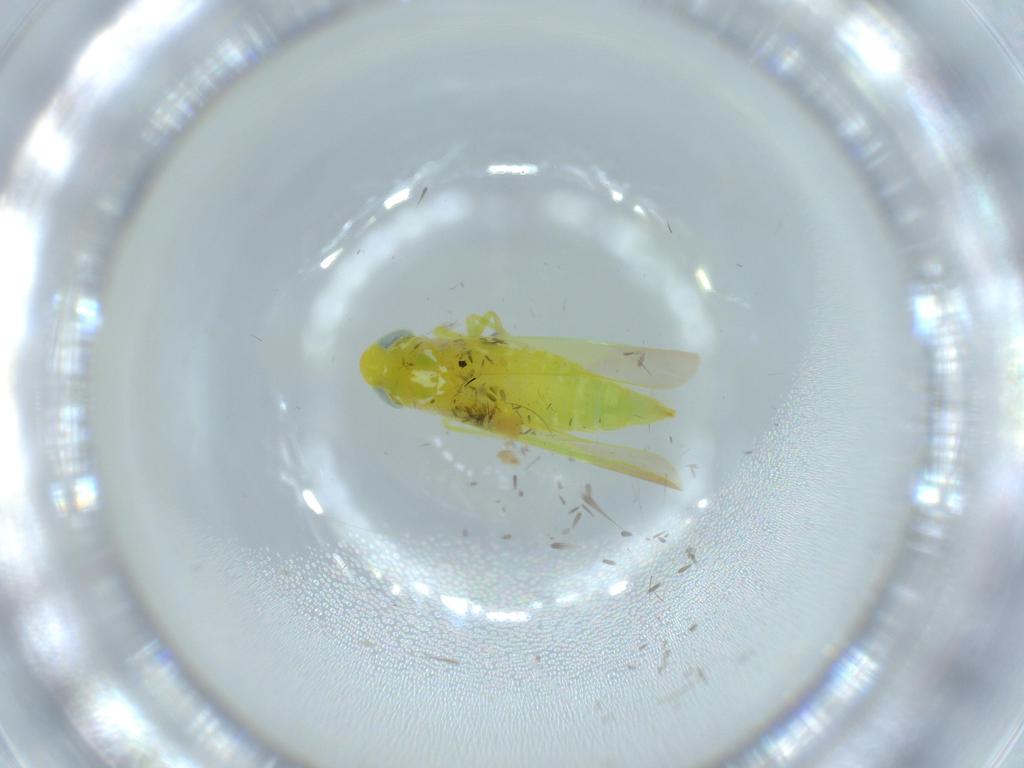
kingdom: Animalia
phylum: Arthropoda
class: Insecta
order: Hemiptera
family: Cicadellidae
